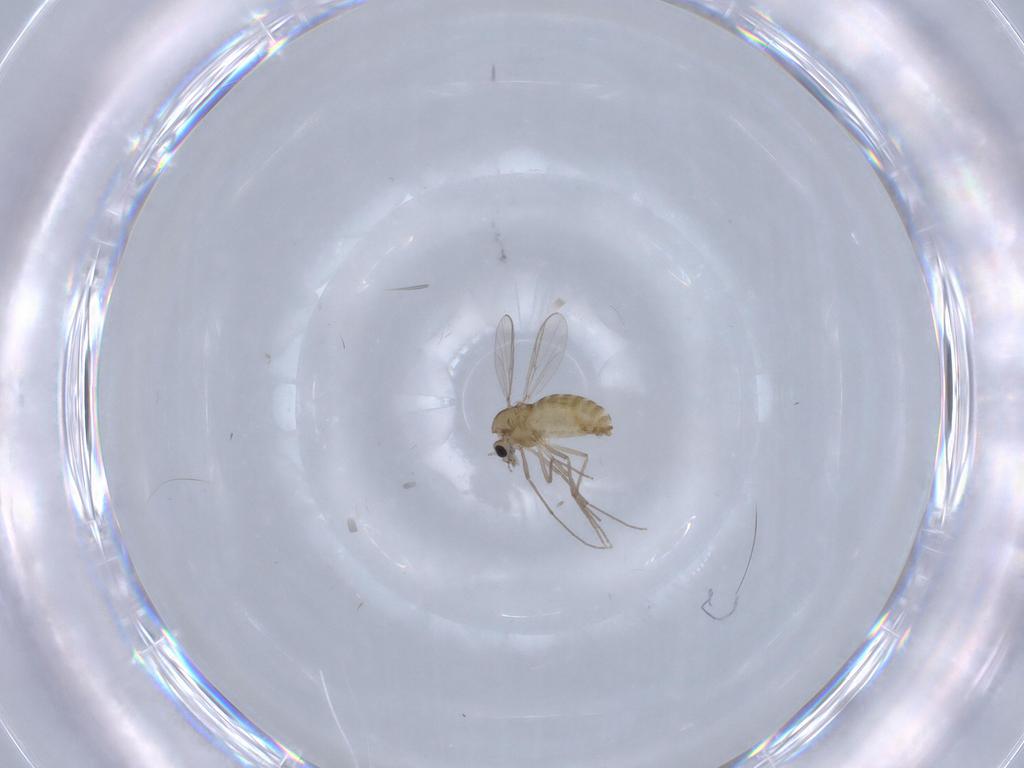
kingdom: Animalia
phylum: Arthropoda
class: Insecta
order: Diptera
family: Chironomidae
